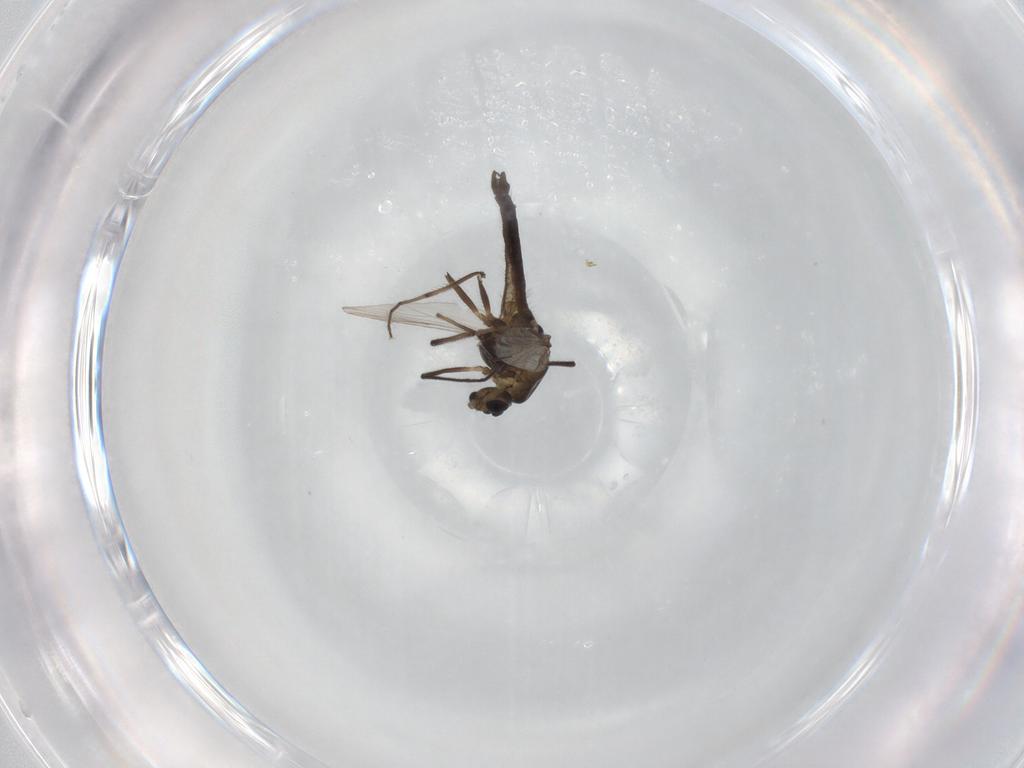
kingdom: Animalia
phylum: Arthropoda
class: Insecta
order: Diptera
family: Chironomidae
